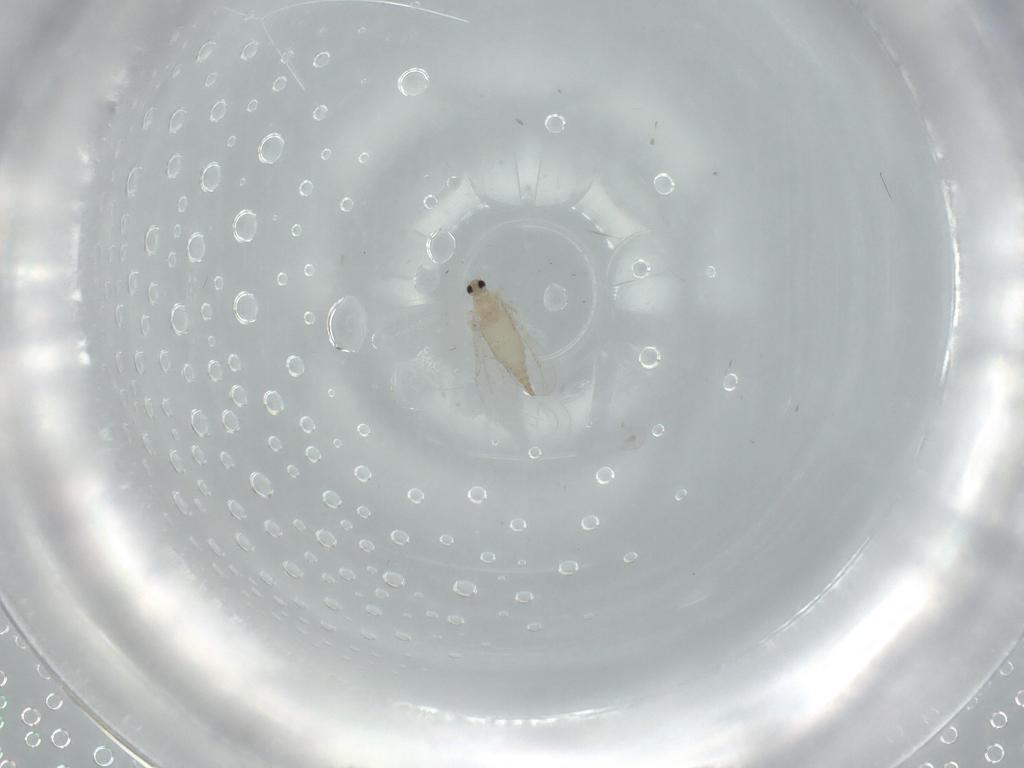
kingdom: Animalia
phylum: Arthropoda
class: Insecta
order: Diptera
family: Cecidomyiidae
